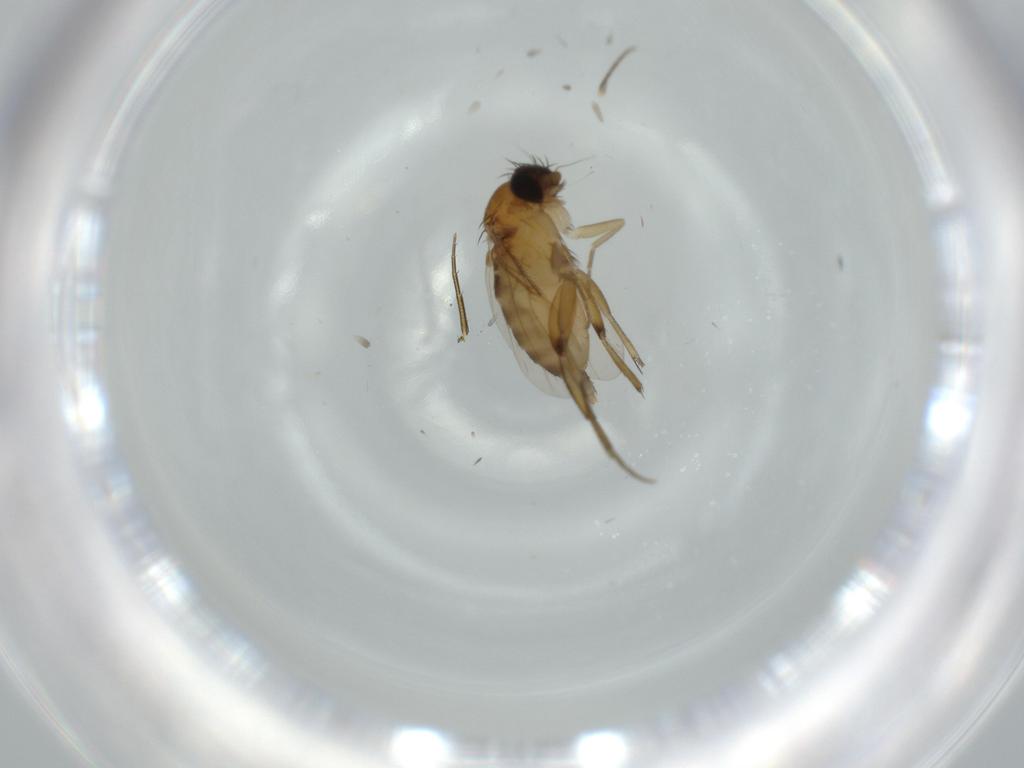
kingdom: Animalia
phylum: Arthropoda
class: Insecta
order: Diptera
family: Phoridae
